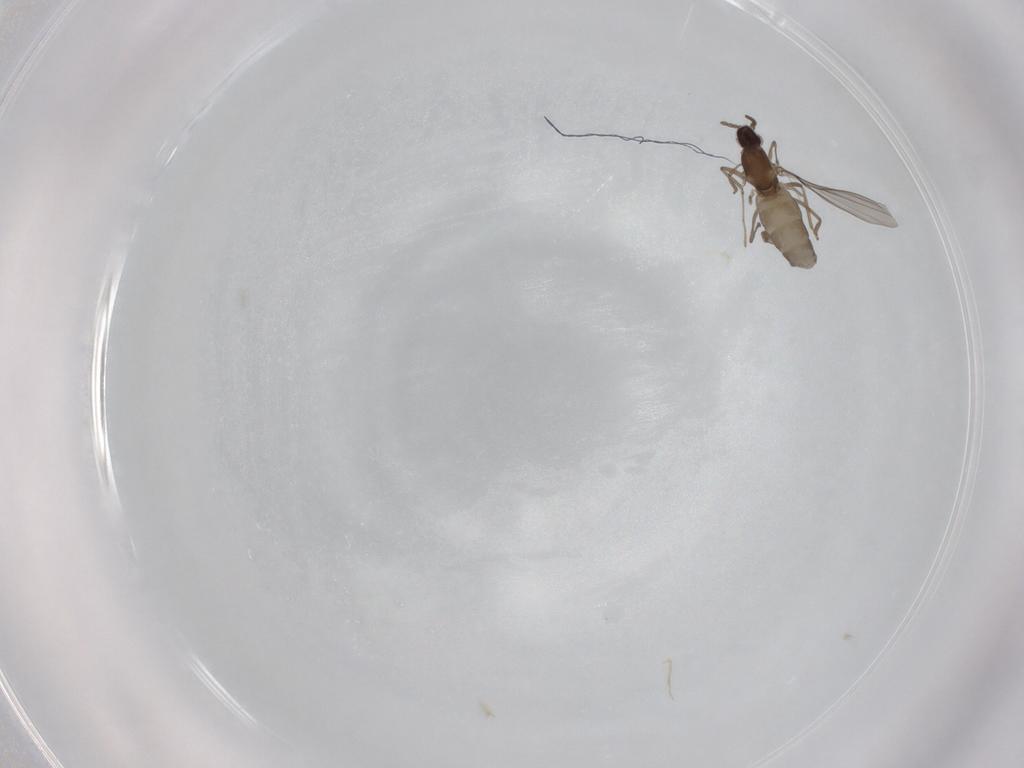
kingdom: Animalia
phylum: Arthropoda
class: Insecta
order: Diptera
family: Cecidomyiidae
